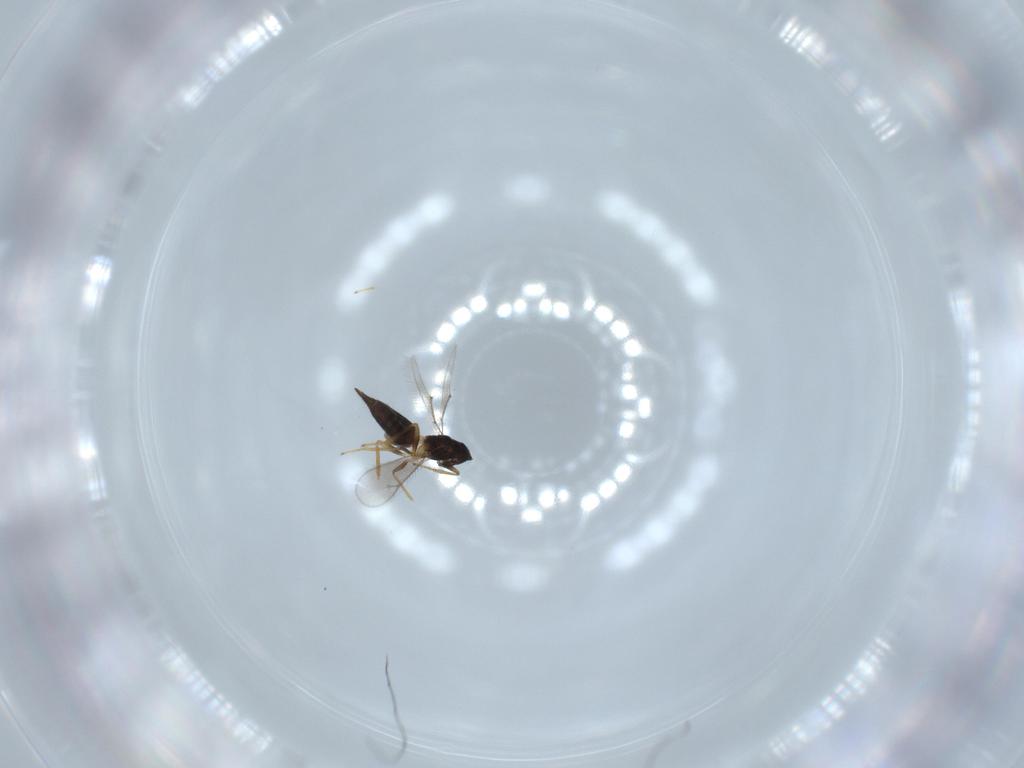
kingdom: Animalia
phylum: Arthropoda
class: Insecta
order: Hymenoptera
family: Eulophidae
